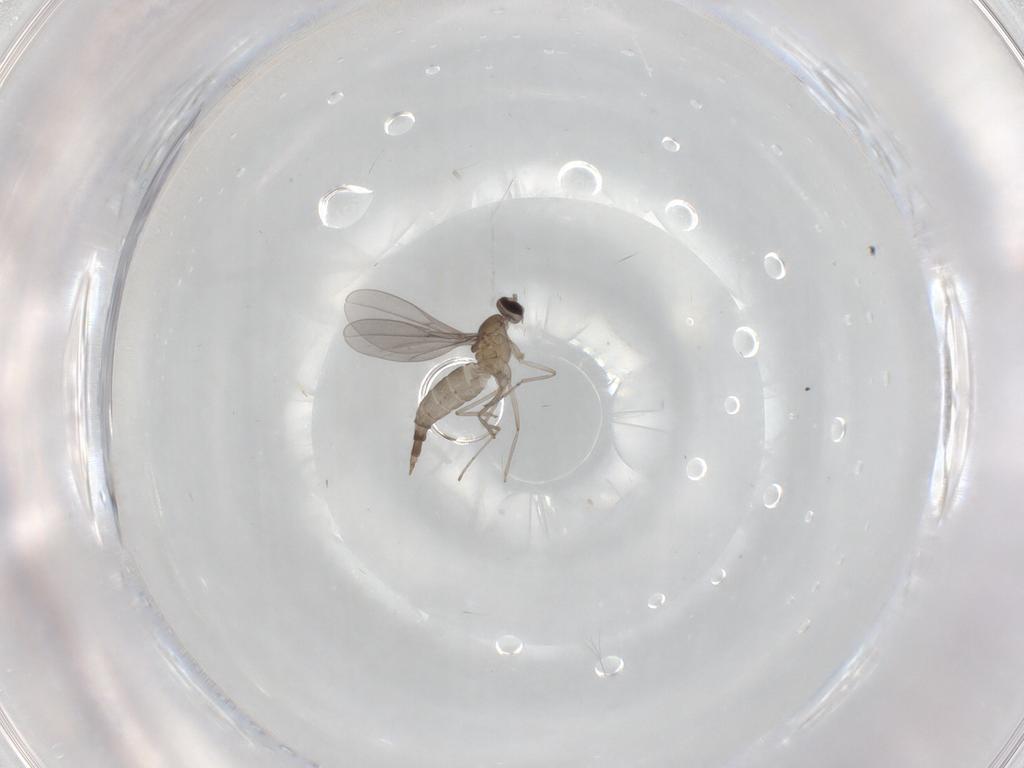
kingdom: Animalia
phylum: Arthropoda
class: Insecta
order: Diptera
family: Cecidomyiidae
